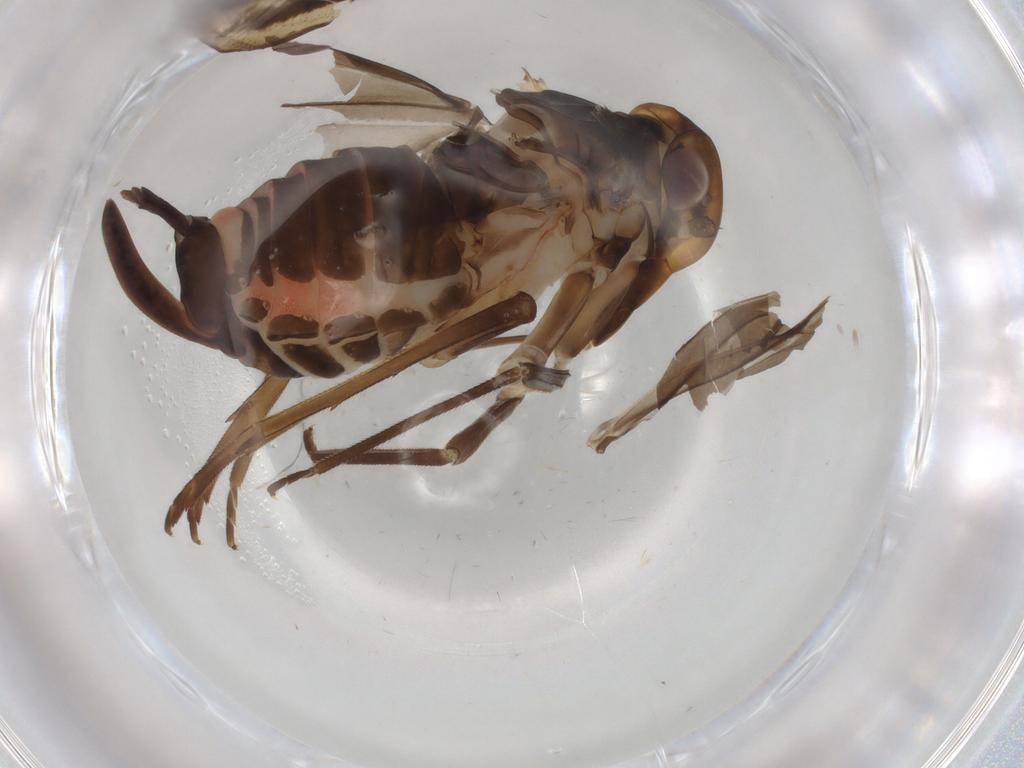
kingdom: Animalia
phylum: Arthropoda
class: Insecta
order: Hemiptera
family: Cixiidae
